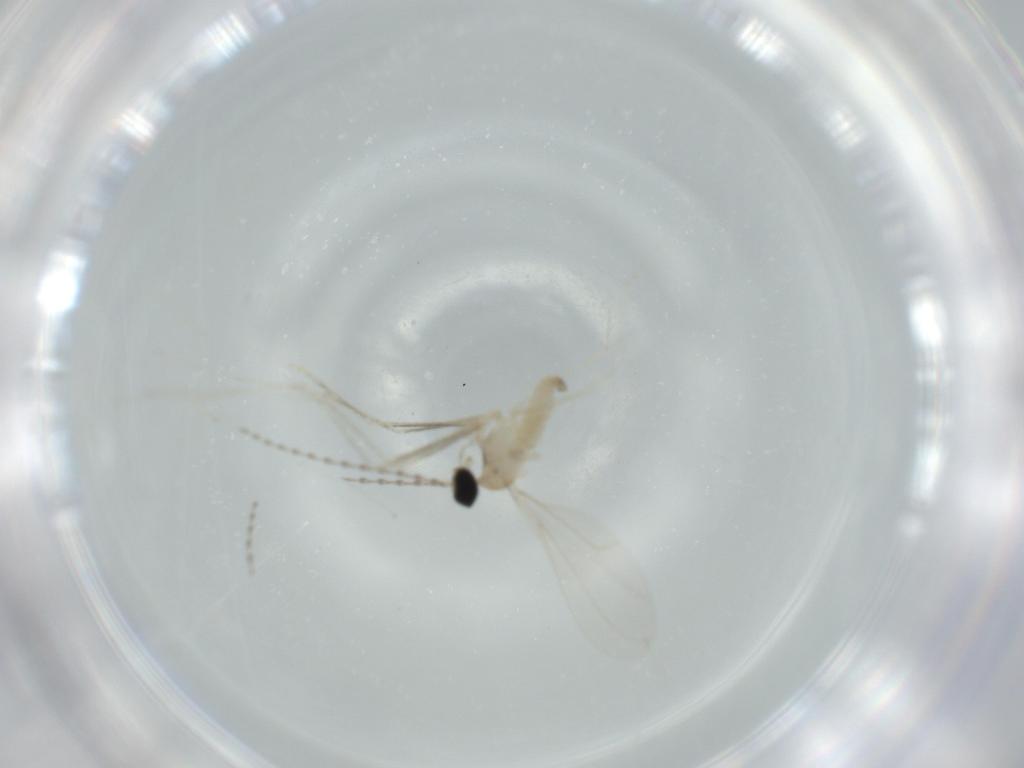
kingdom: Animalia
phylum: Arthropoda
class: Insecta
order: Diptera
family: Cecidomyiidae
